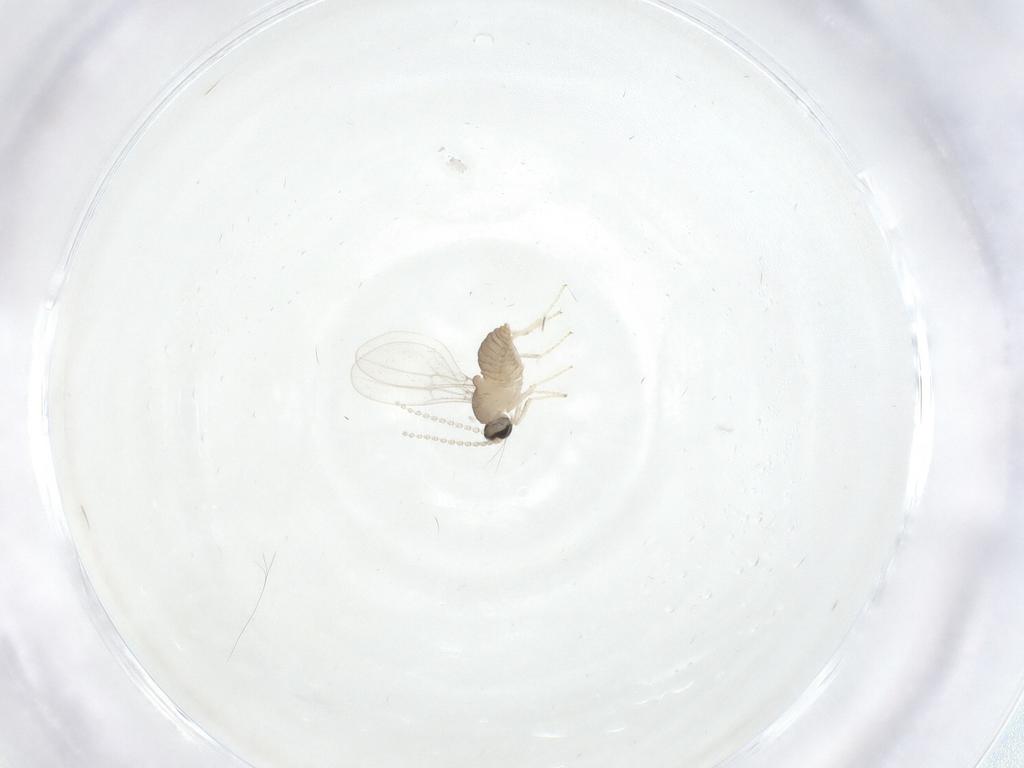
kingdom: Animalia
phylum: Arthropoda
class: Insecta
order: Diptera
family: Cecidomyiidae
